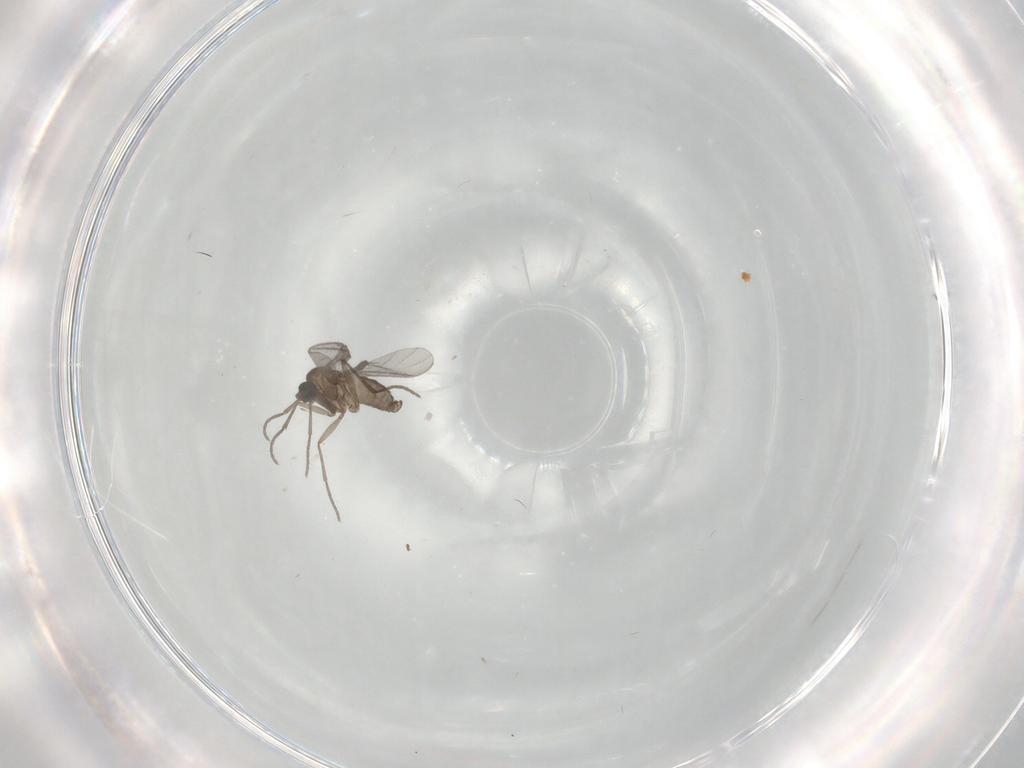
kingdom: Animalia
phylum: Arthropoda
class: Insecta
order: Diptera
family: Sciaridae
